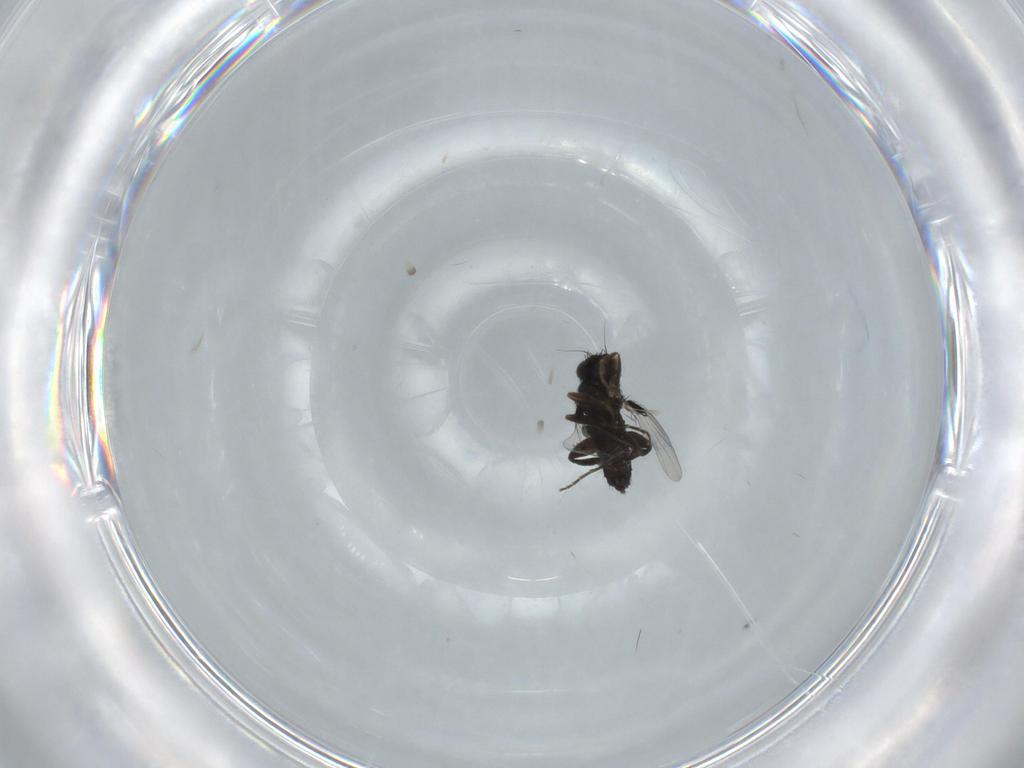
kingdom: Animalia
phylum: Arthropoda
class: Insecta
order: Diptera
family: Phoridae
